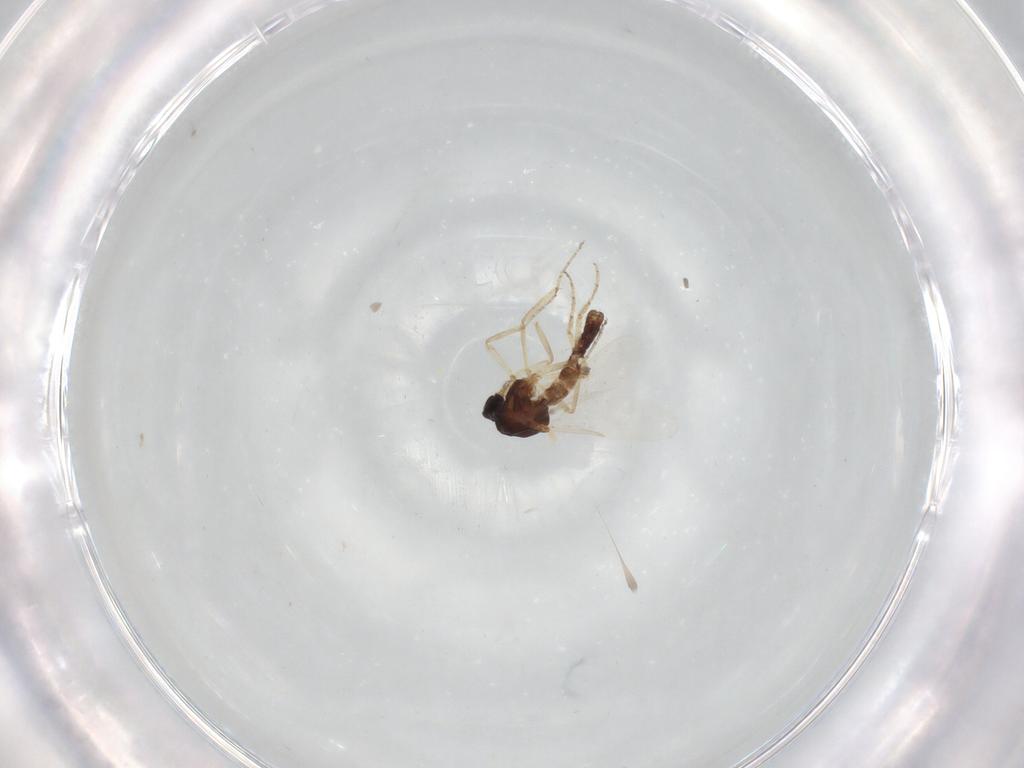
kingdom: Animalia
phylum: Arthropoda
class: Insecta
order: Diptera
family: Ceratopogonidae
